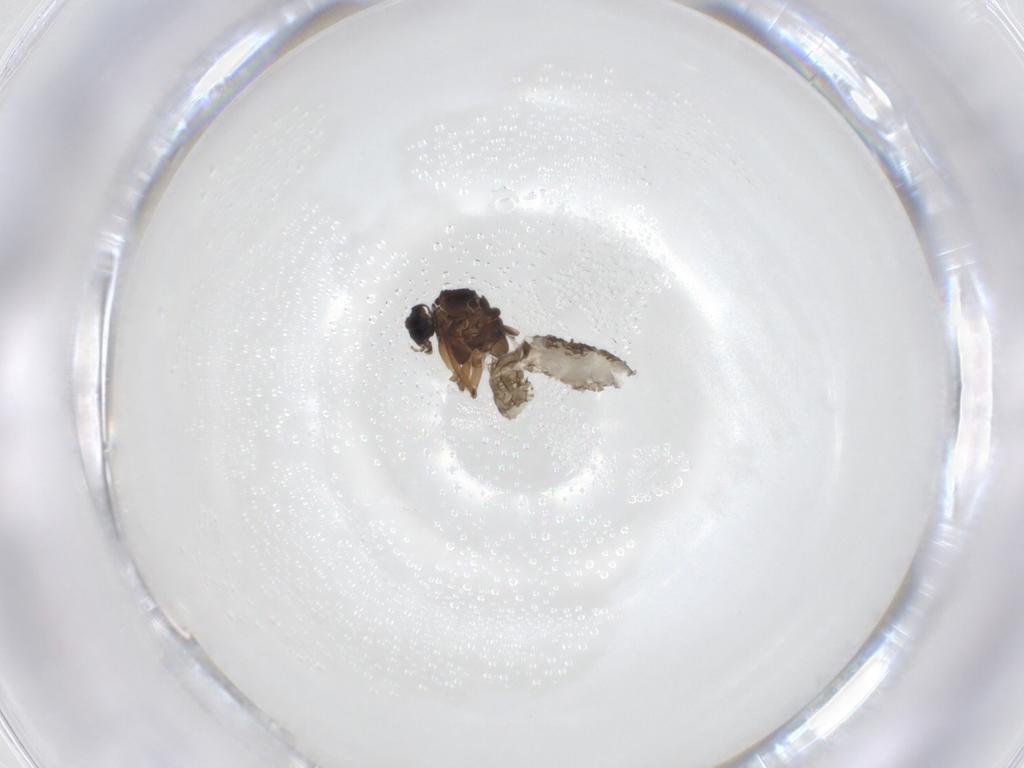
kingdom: Animalia
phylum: Arthropoda
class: Insecta
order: Diptera
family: Sciaridae
